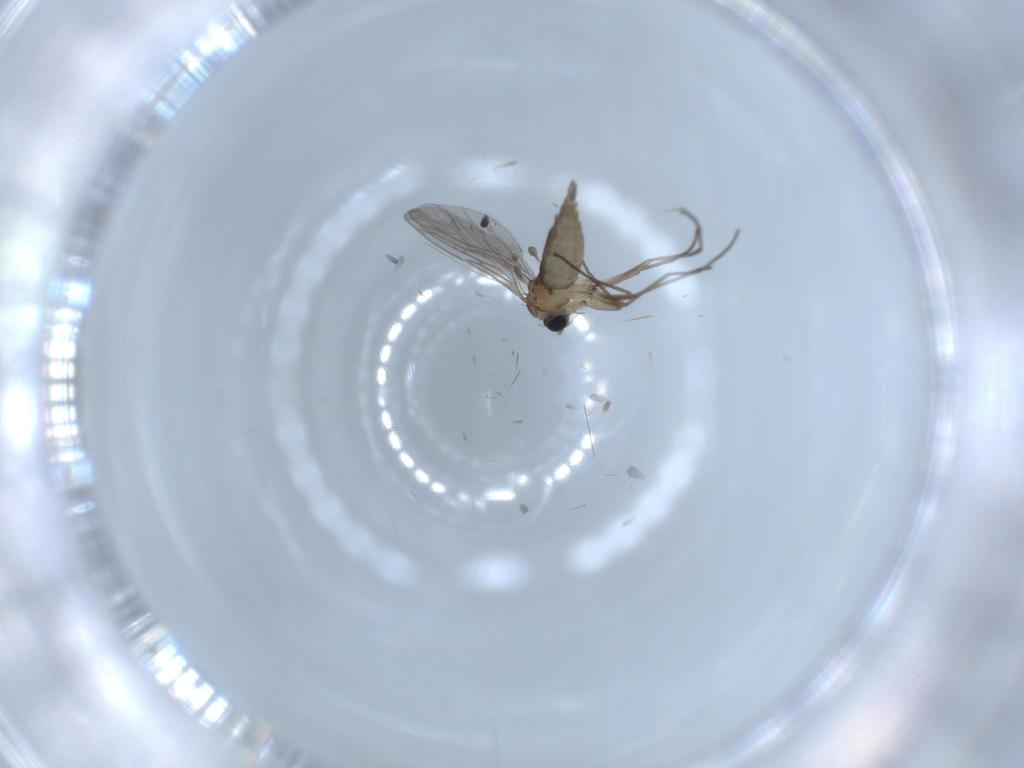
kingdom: Animalia
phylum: Arthropoda
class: Insecta
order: Diptera
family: Sciaridae
